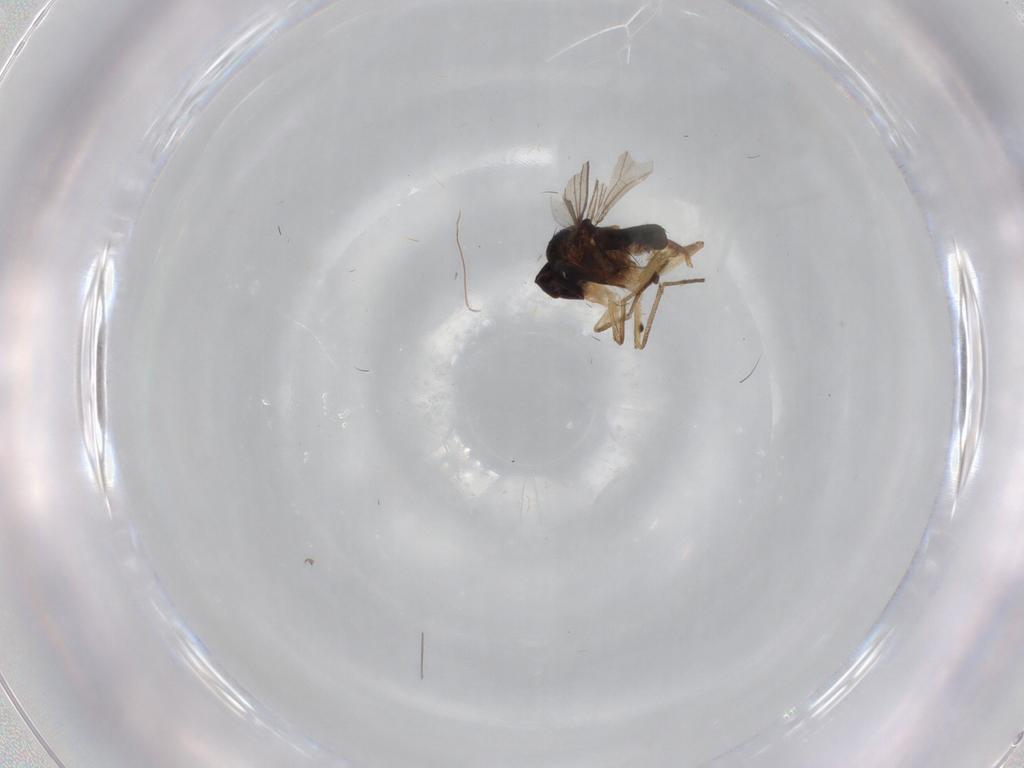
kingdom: Animalia
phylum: Arthropoda
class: Insecta
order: Diptera
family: Dolichopodidae
